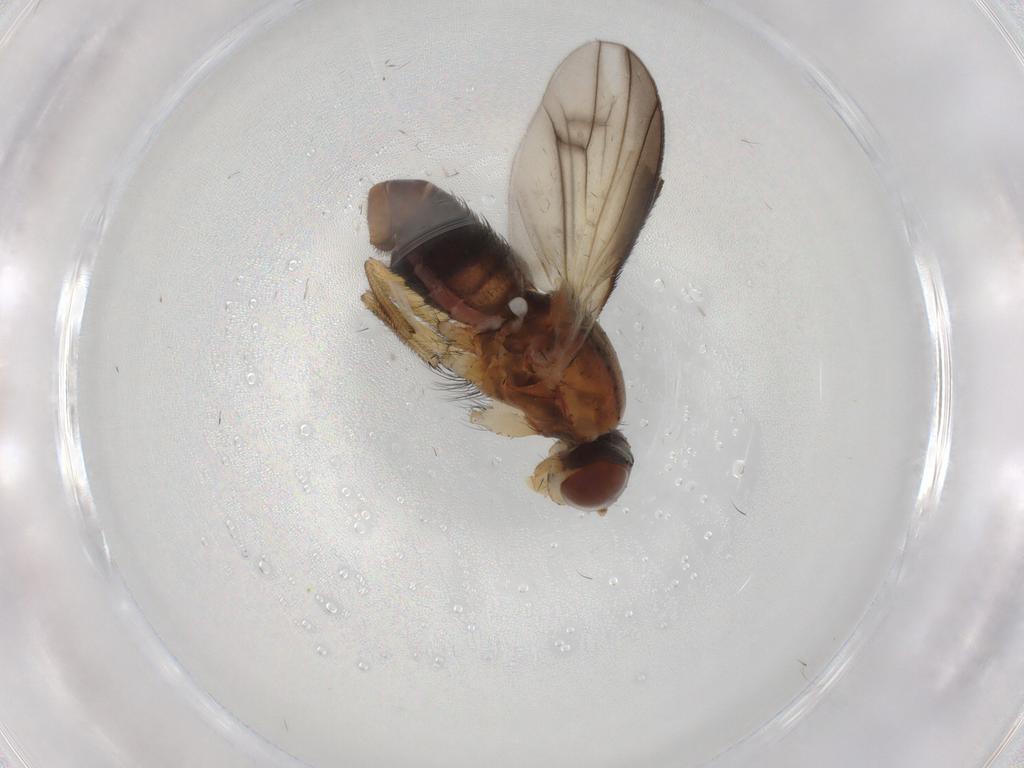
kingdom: Animalia
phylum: Arthropoda
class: Insecta
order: Diptera
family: Heleomyzidae
